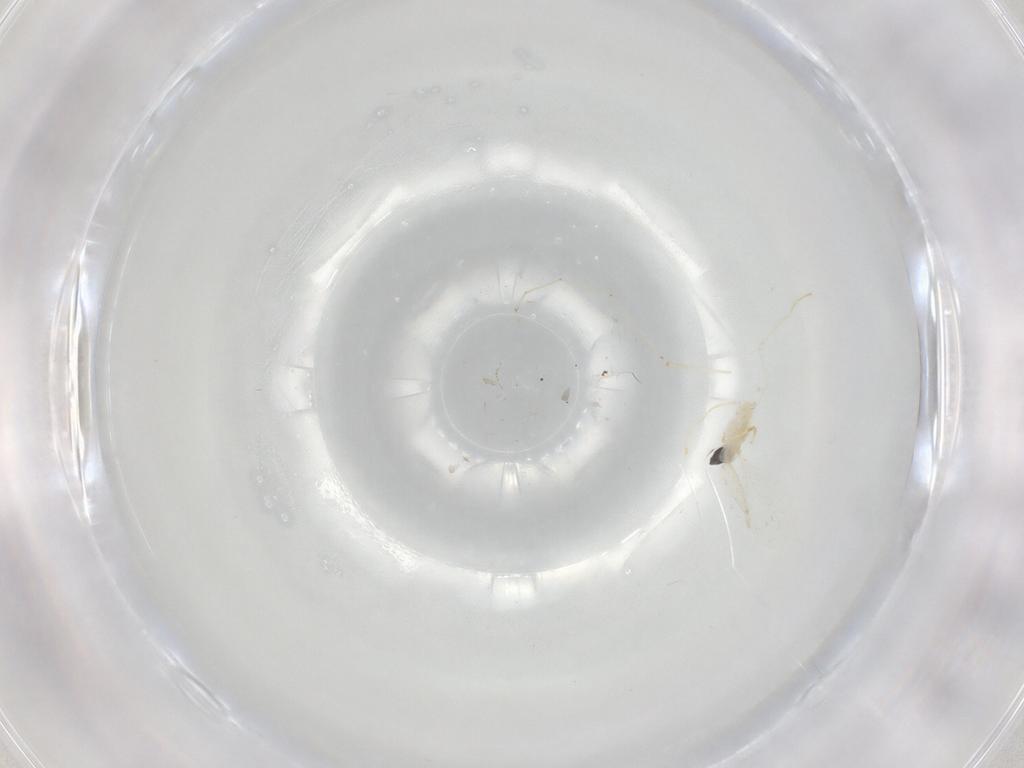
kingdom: Animalia
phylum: Arthropoda
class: Insecta
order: Diptera
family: Cecidomyiidae
